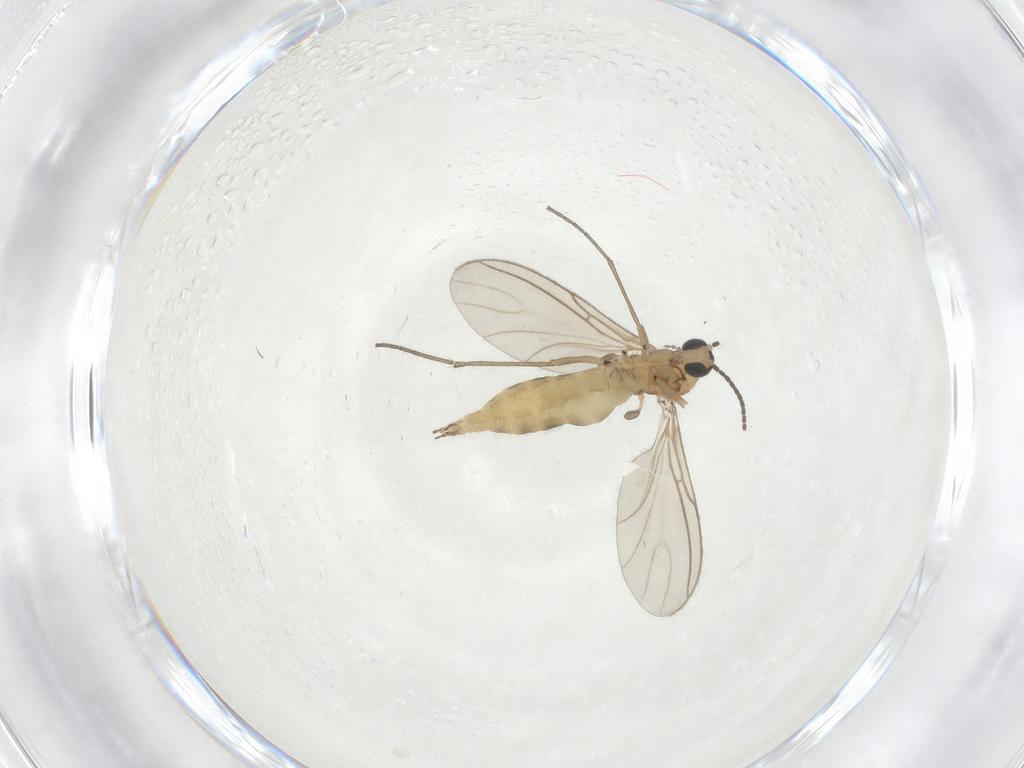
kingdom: Animalia
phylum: Arthropoda
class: Insecta
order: Diptera
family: Sciaridae
